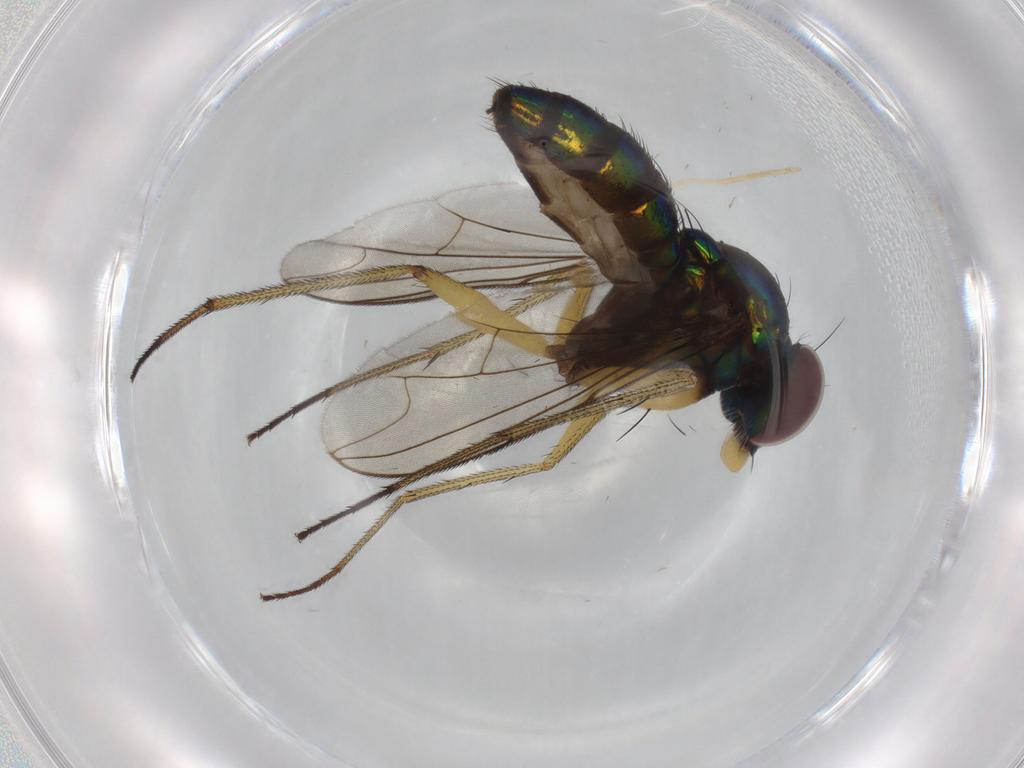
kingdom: Animalia
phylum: Arthropoda
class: Insecta
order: Diptera
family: Dolichopodidae
